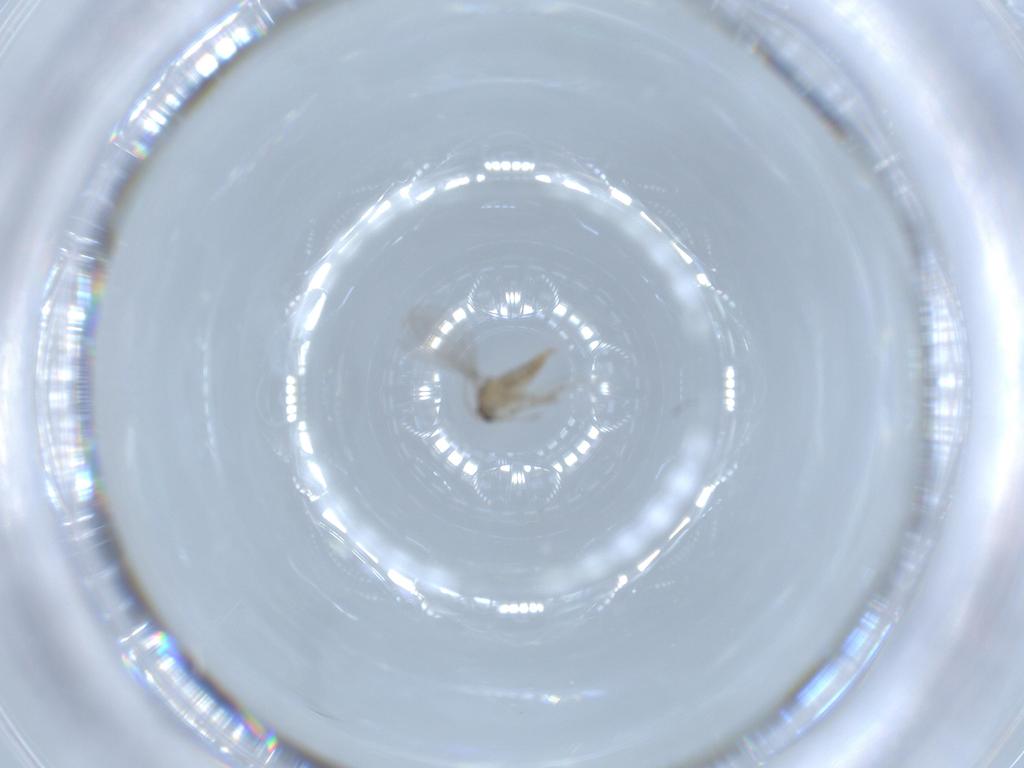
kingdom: Animalia
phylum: Arthropoda
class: Insecta
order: Diptera
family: Cecidomyiidae
